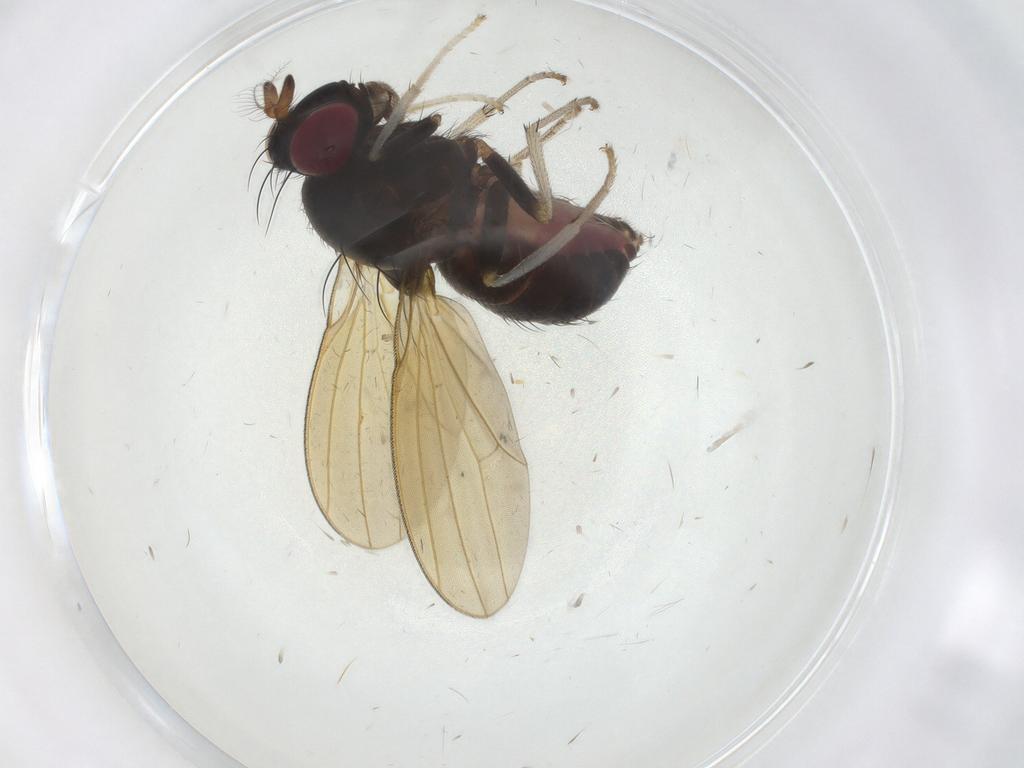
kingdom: Animalia
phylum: Arthropoda
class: Insecta
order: Diptera
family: Lauxaniidae
